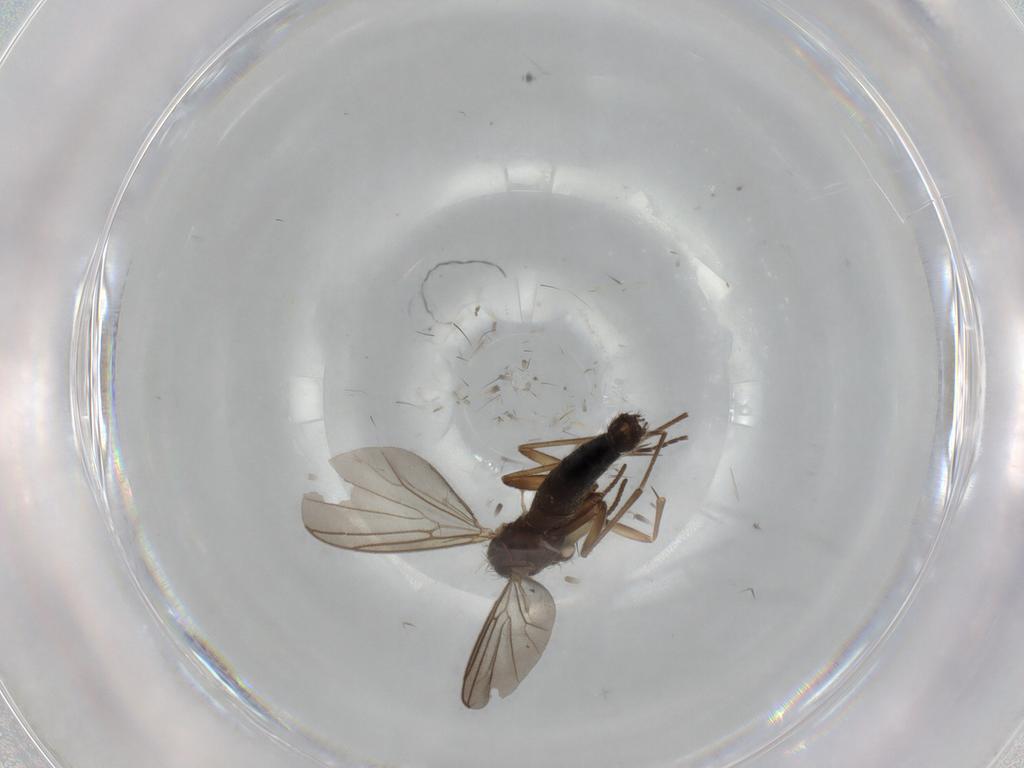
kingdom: Animalia
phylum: Arthropoda
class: Insecta
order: Diptera
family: Mycetophilidae
